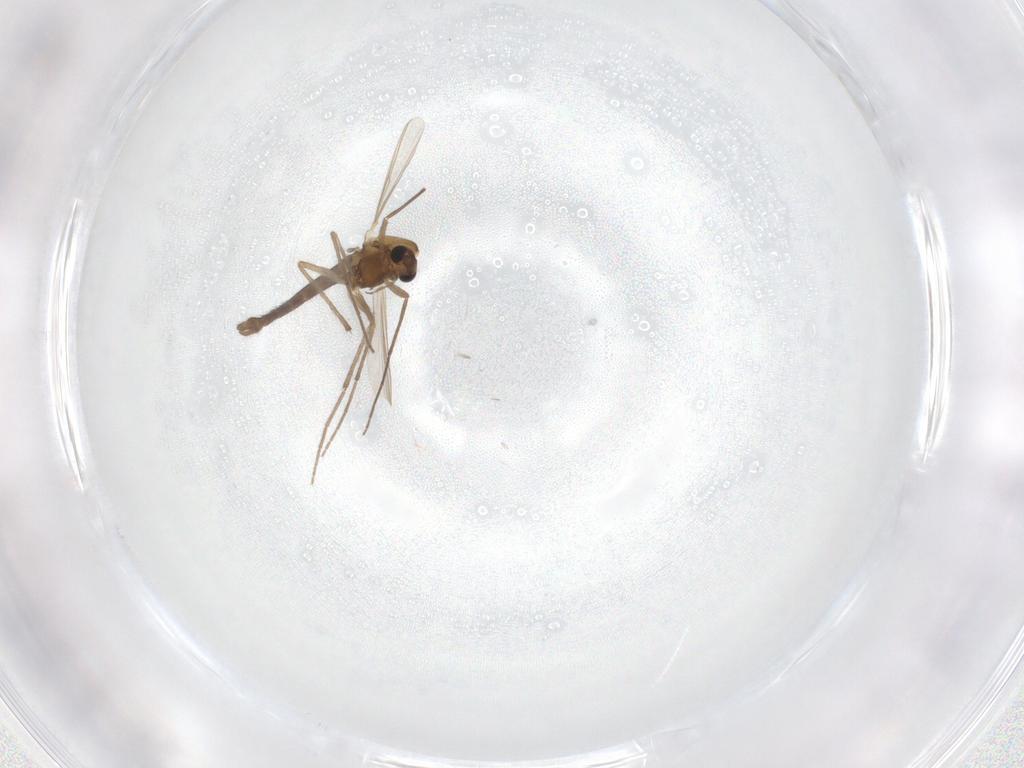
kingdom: Animalia
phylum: Arthropoda
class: Insecta
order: Diptera
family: Chironomidae
